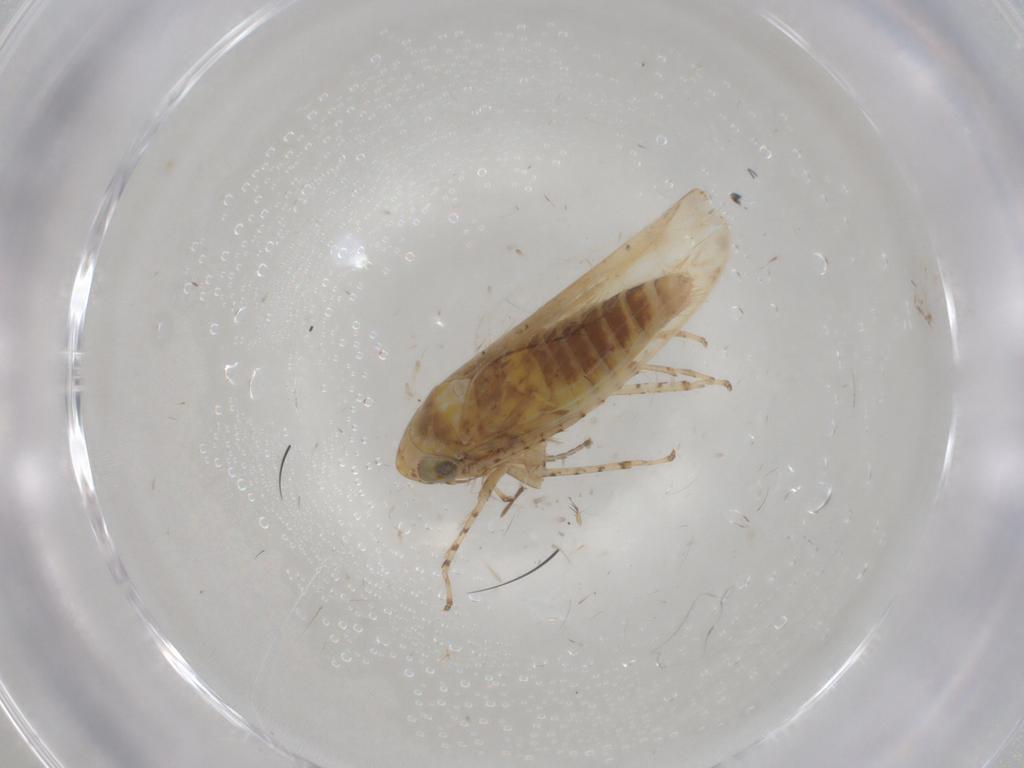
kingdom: Animalia
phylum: Arthropoda
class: Insecta
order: Hemiptera
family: Cicadellidae
